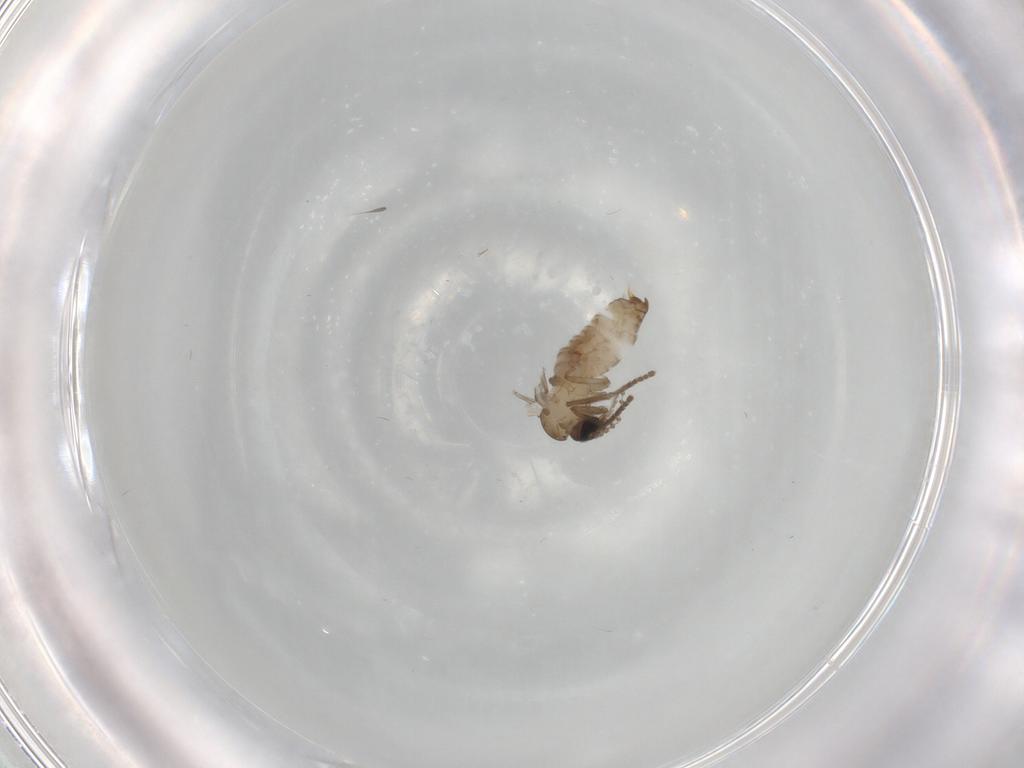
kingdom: Animalia
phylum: Arthropoda
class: Insecta
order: Diptera
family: Psychodidae
